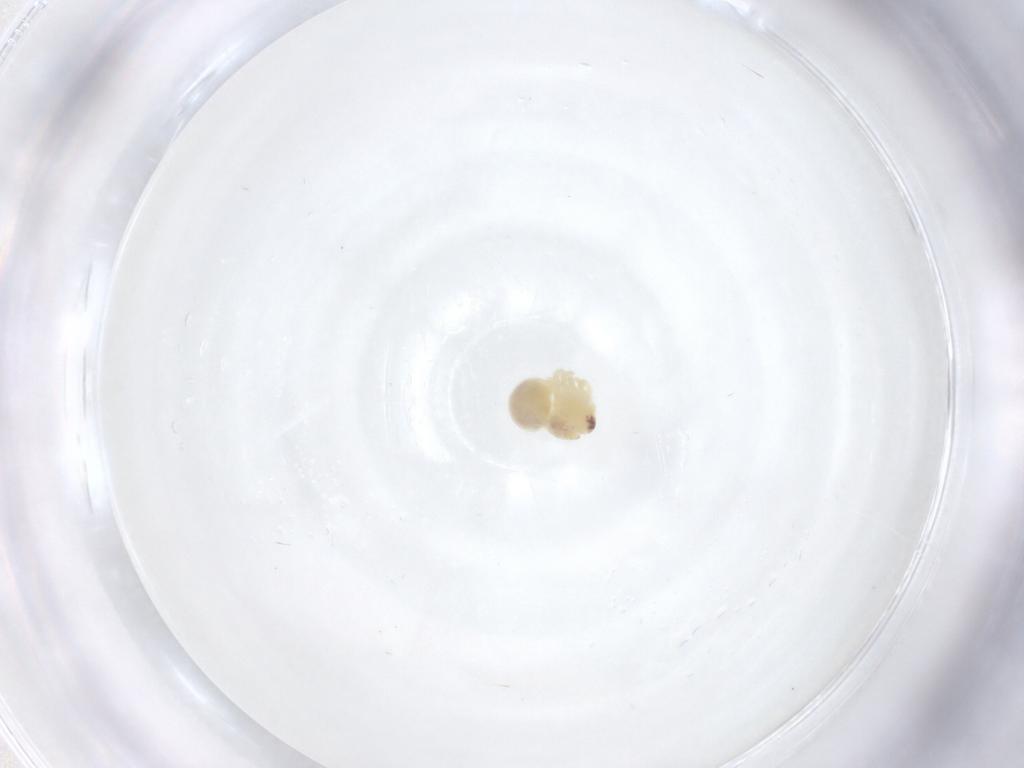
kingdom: Animalia
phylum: Arthropoda
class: Arachnida
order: Araneae
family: Pholcidae
